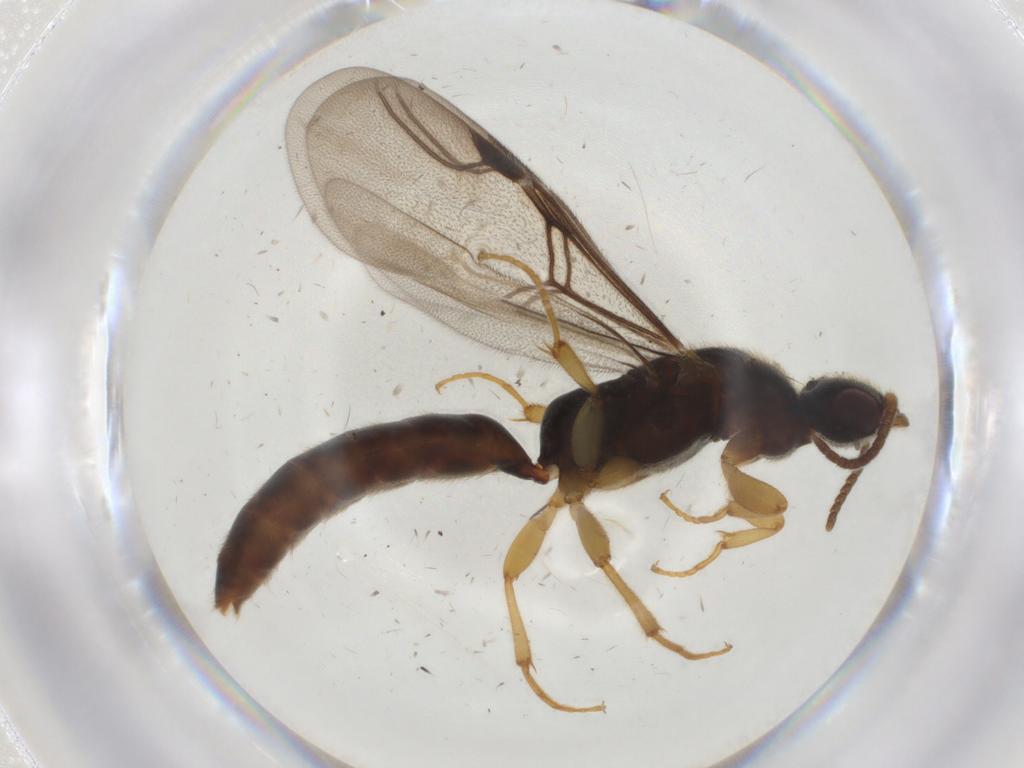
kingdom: Animalia
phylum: Arthropoda
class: Insecta
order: Hymenoptera
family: Bethylidae
